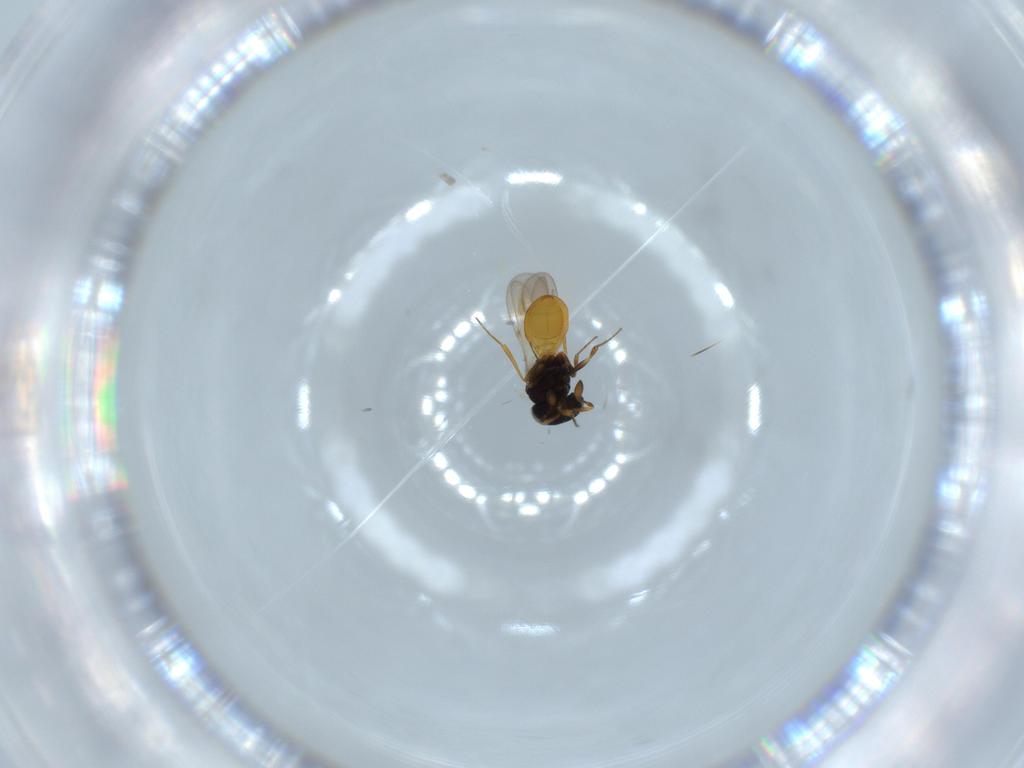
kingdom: Animalia
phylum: Arthropoda
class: Insecta
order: Hymenoptera
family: Scelionidae
